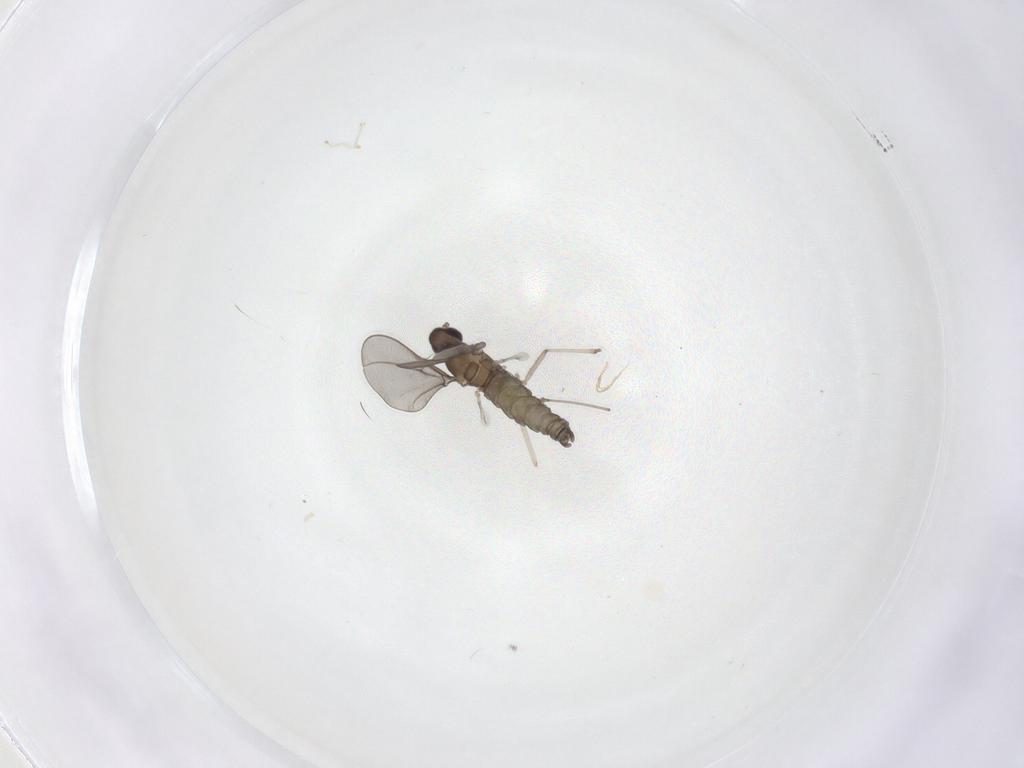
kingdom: Animalia
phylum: Arthropoda
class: Insecta
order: Diptera
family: Cecidomyiidae
